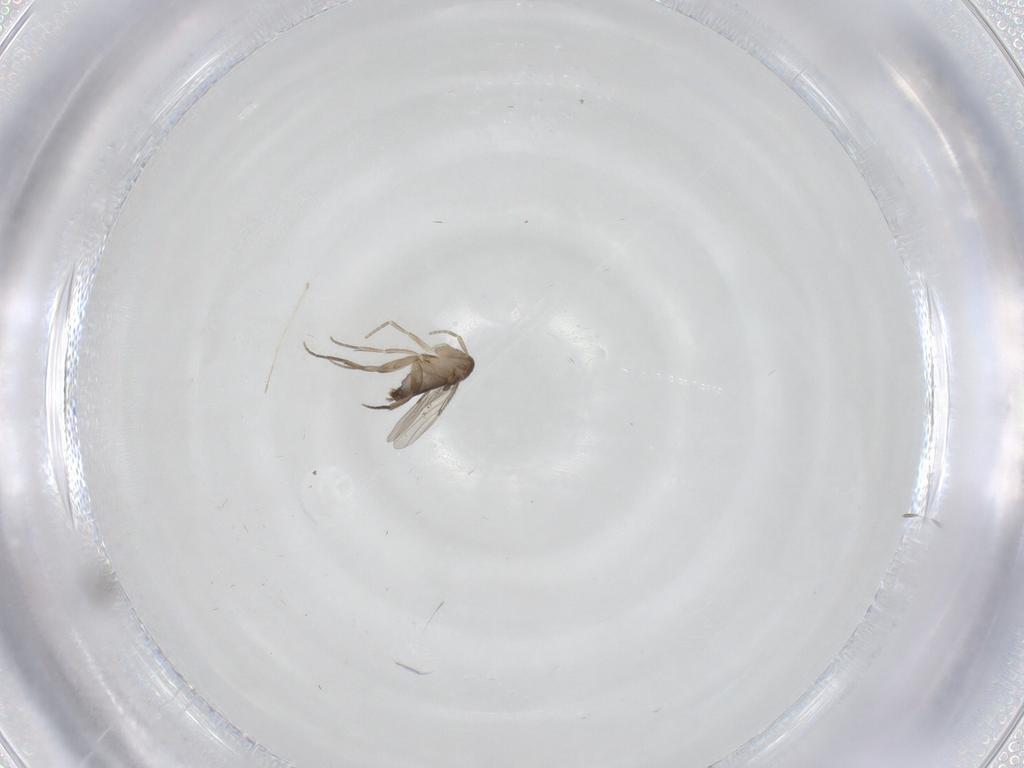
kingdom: Animalia
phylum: Arthropoda
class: Insecta
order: Diptera
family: Cecidomyiidae
